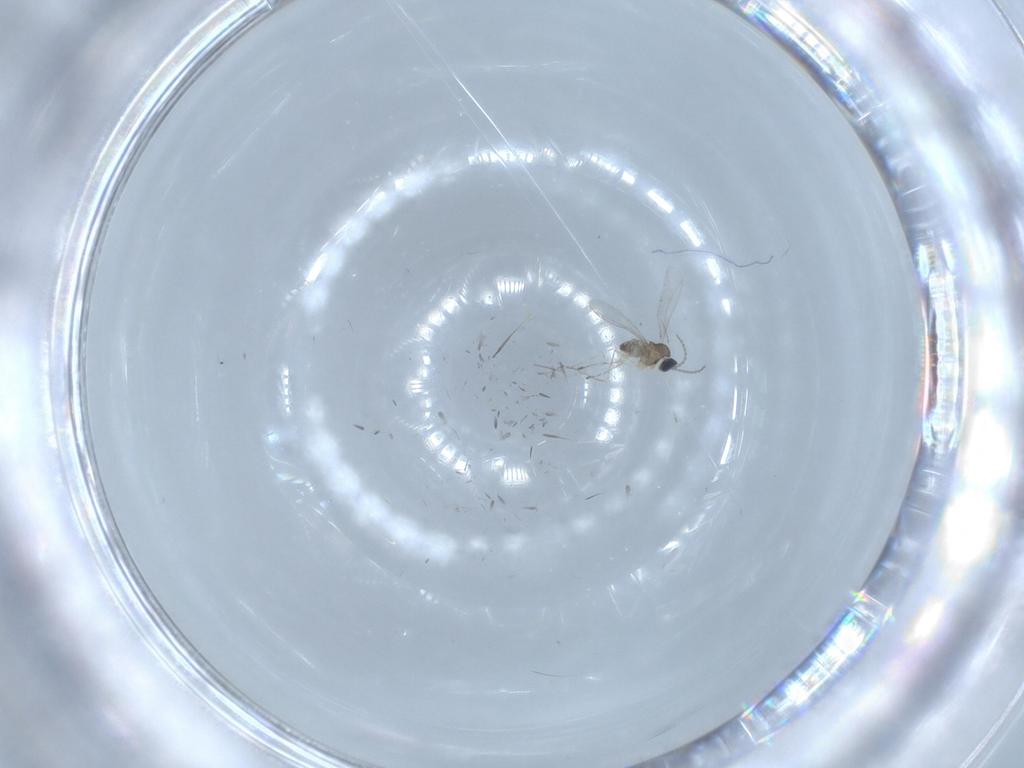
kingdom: Animalia
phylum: Arthropoda
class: Insecta
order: Diptera
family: Cecidomyiidae
